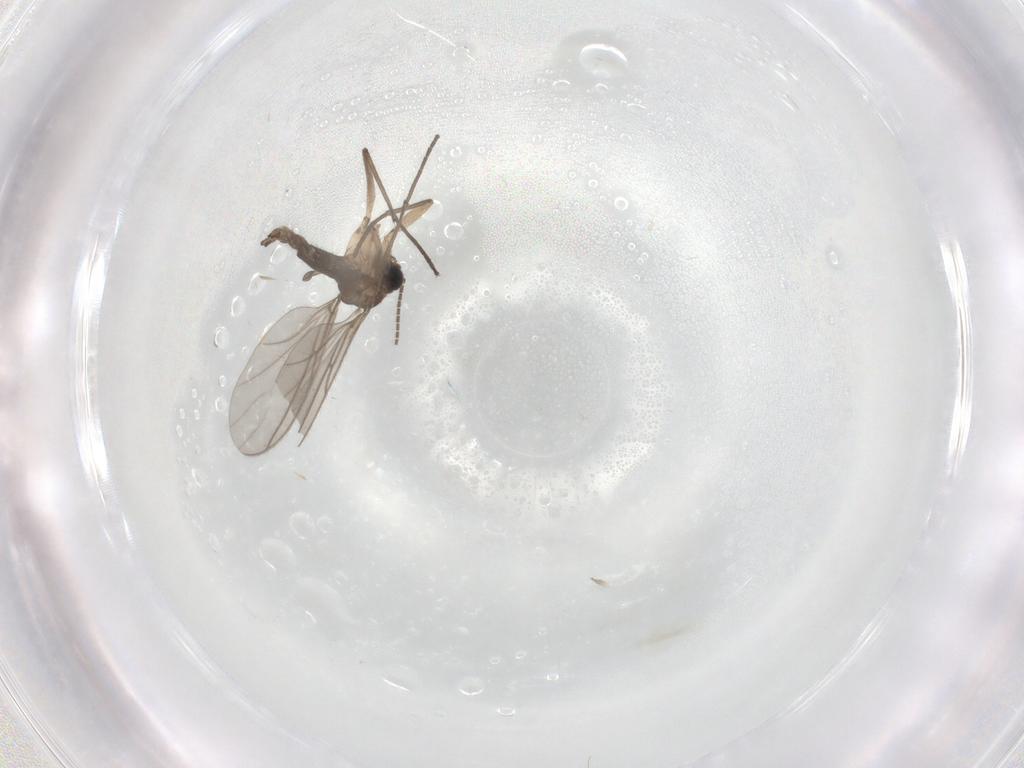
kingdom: Animalia
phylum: Arthropoda
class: Insecta
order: Diptera
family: Sciaridae
